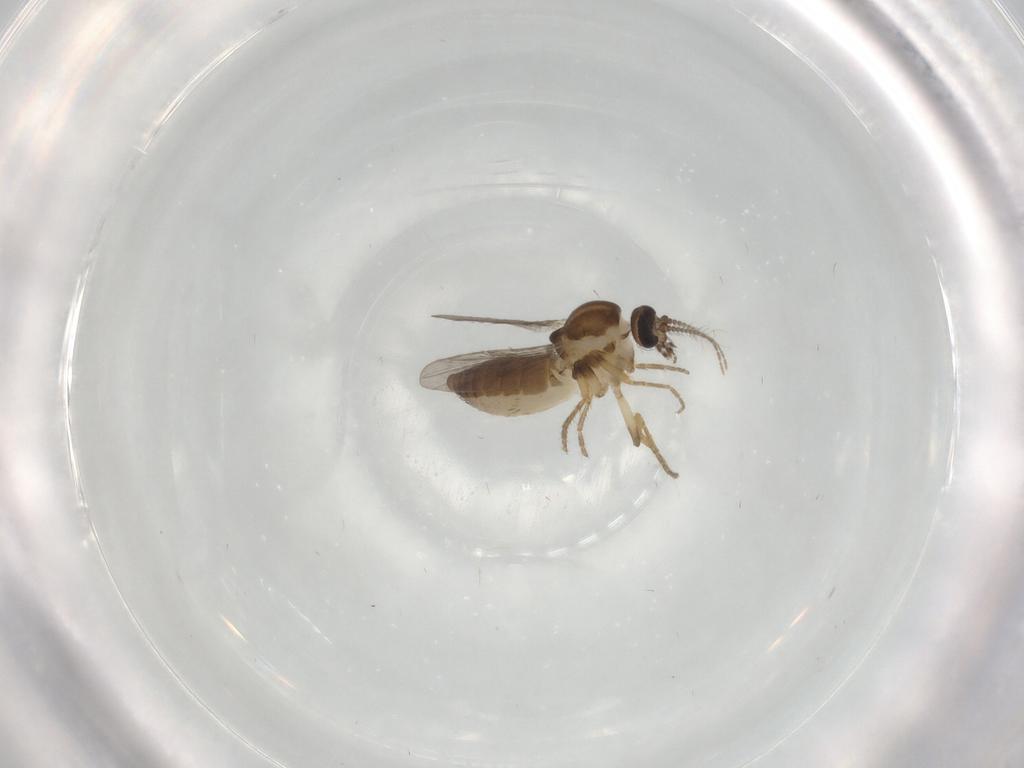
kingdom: Animalia
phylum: Arthropoda
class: Insecta
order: Diptera
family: Ceratopogonidae
